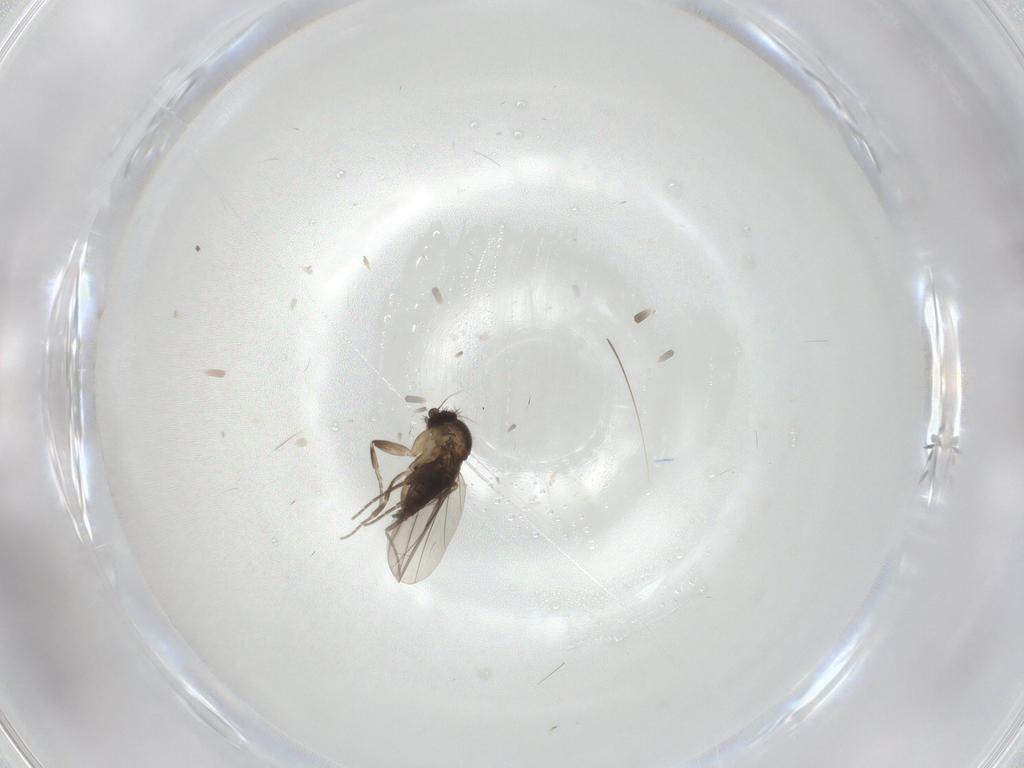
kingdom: Animalia
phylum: Arthropoda
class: Insecta
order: Diptera
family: Phoridae
